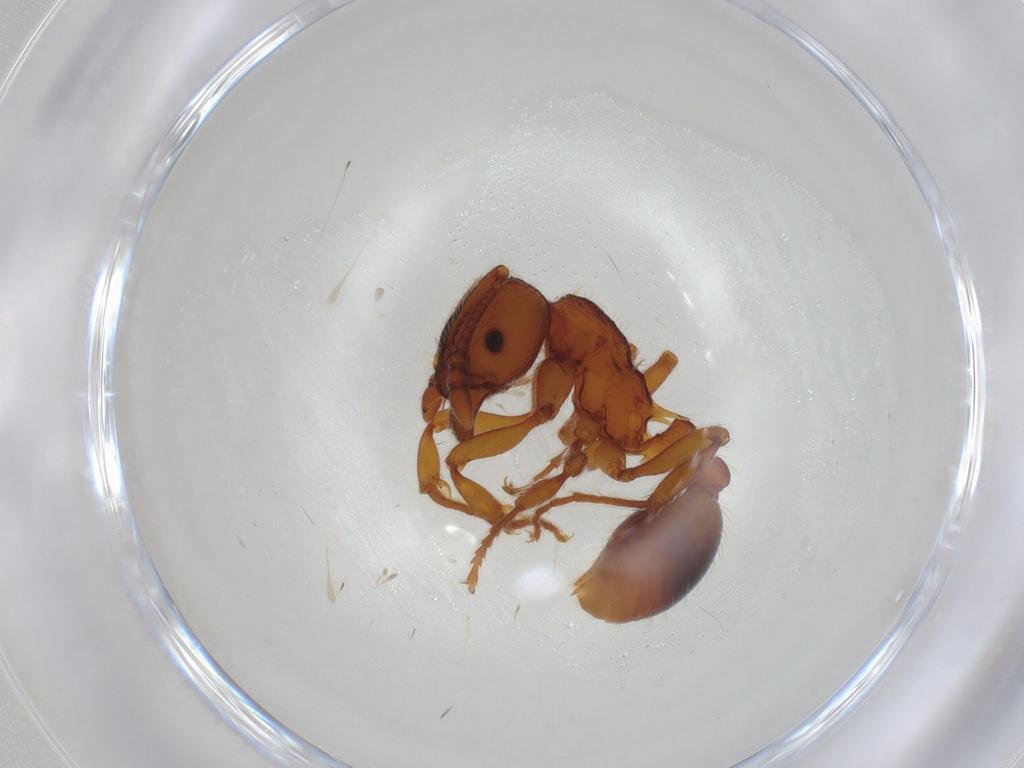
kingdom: Animalia
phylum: Arthropoda
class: Insecta
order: Hymenoptera
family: Formicidae
